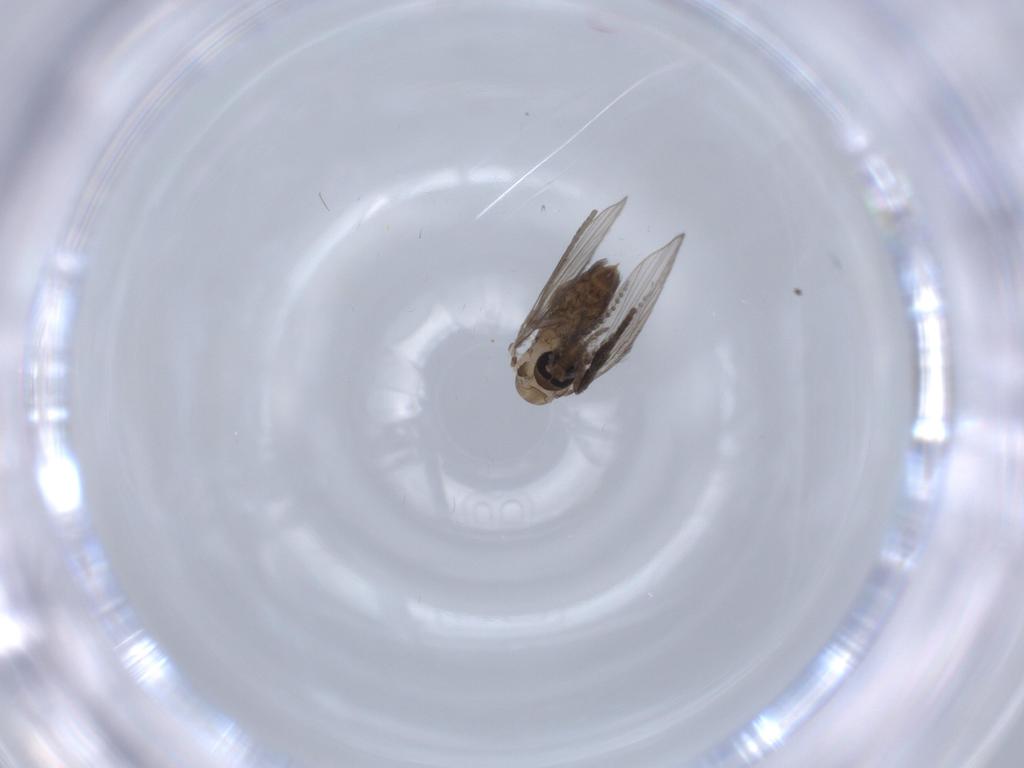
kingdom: Animalia
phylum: Arthropoda
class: Insecta
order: Diptera
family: Psychodidae
